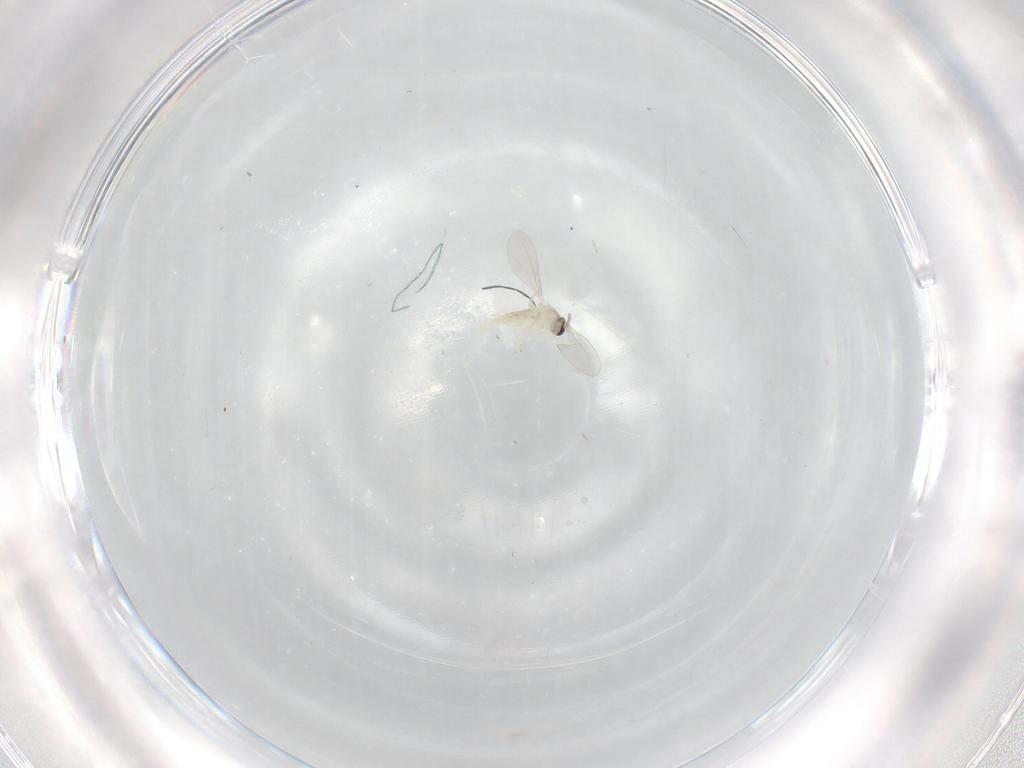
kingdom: Animalia
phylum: Arthropoda
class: Insecta
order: Diptera
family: Cecidomyiidae
